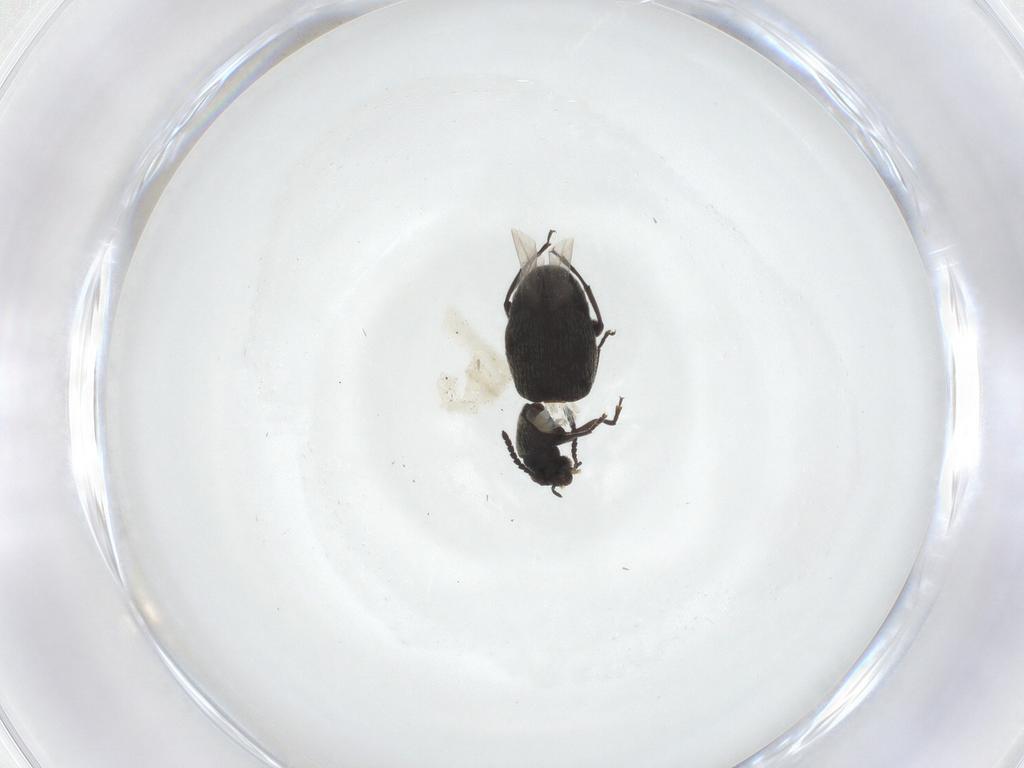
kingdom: Animalia
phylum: Arthropoda
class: Insecta
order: Coleoptera
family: Chrysomelidae
